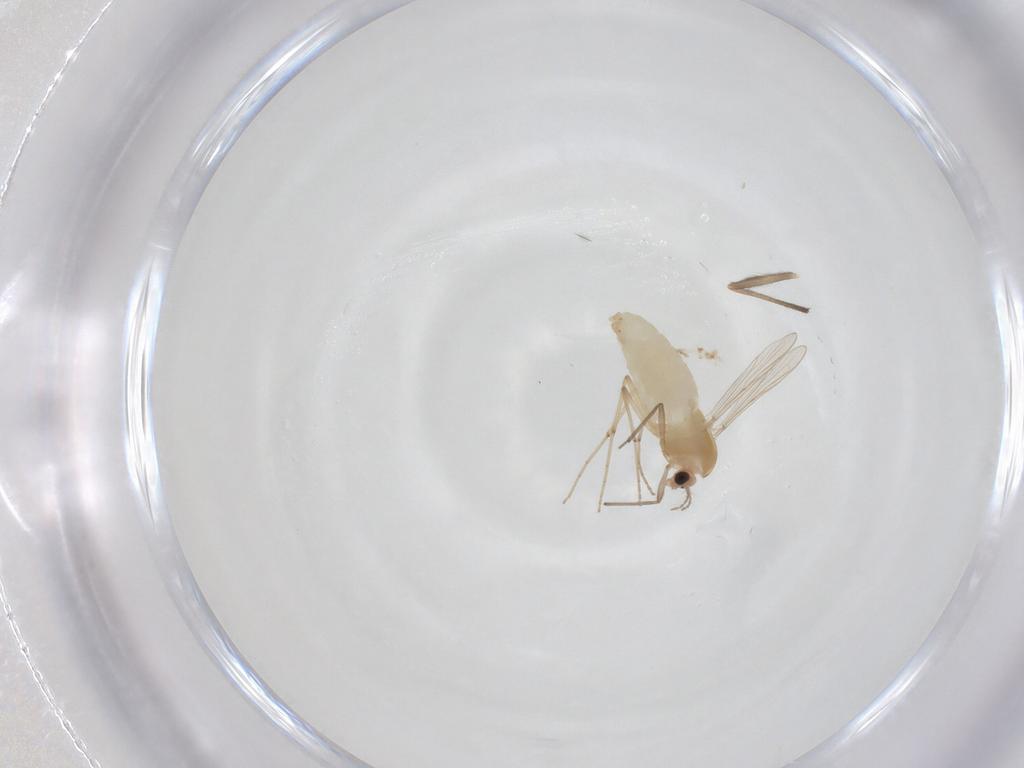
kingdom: Animalia
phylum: Arthropoda
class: Insecta
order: Diptera
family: Chironomidae
